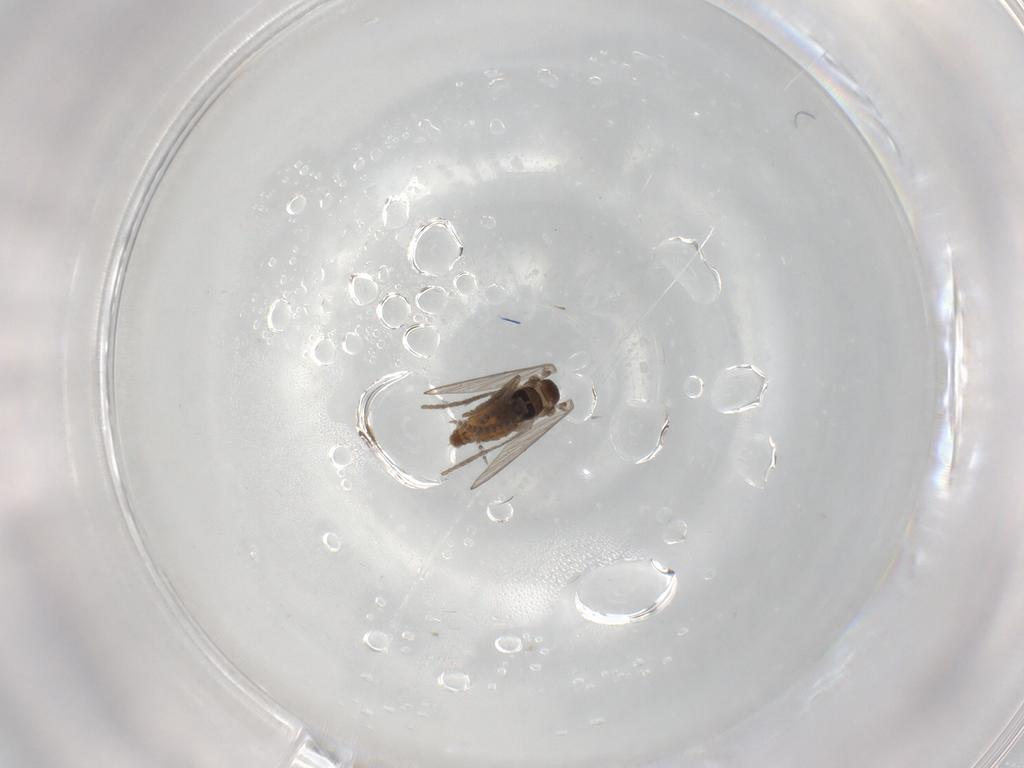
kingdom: Animalia
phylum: Arthropoda
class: Insecta
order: Diptera
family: Psychodidae
